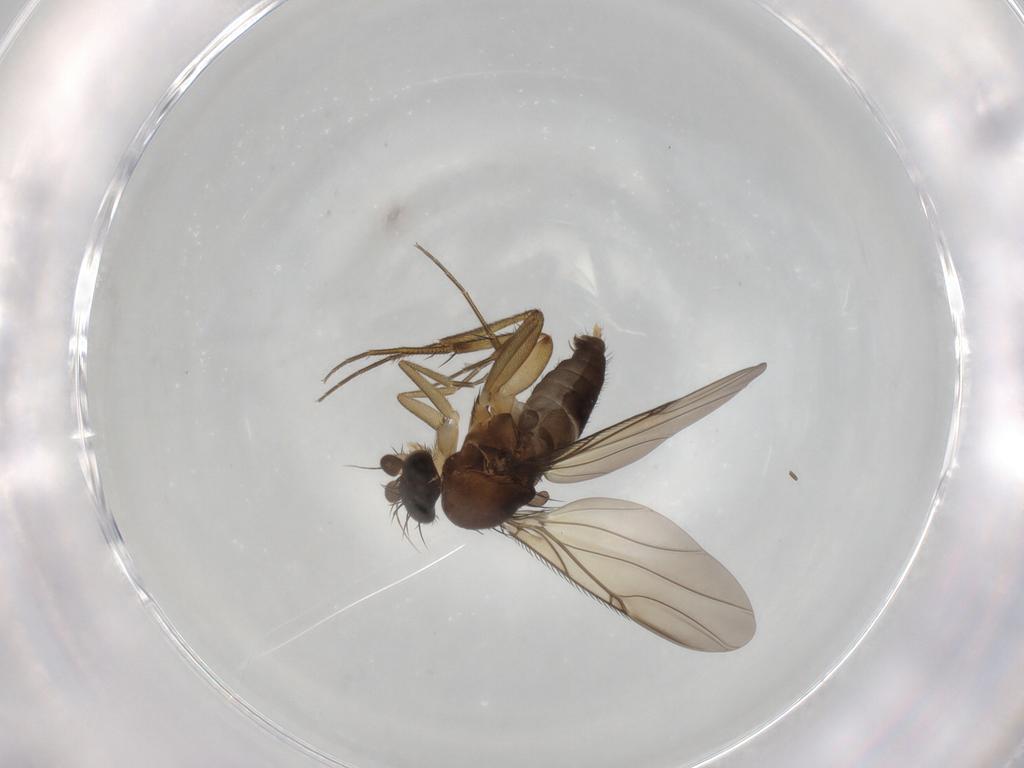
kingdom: Animalia
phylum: Arthropoda
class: Insecta
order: Diptera
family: Phoridae
